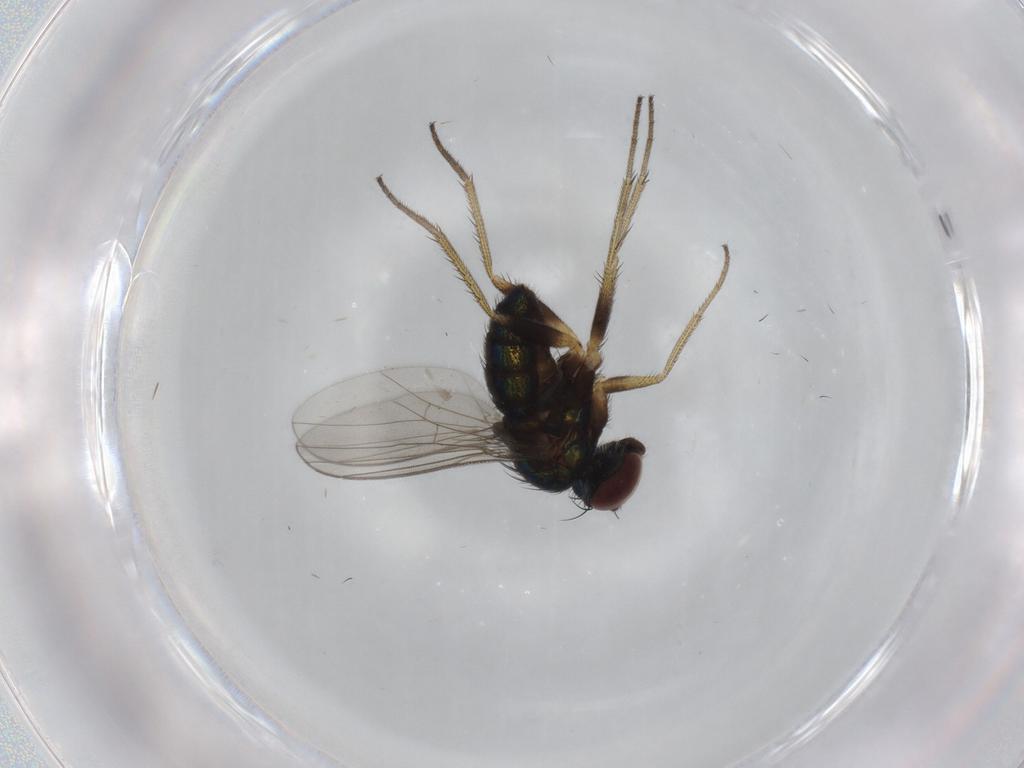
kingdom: Animalia
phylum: Arthropoda
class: Insecta
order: Diptera
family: Dolichopodidae
